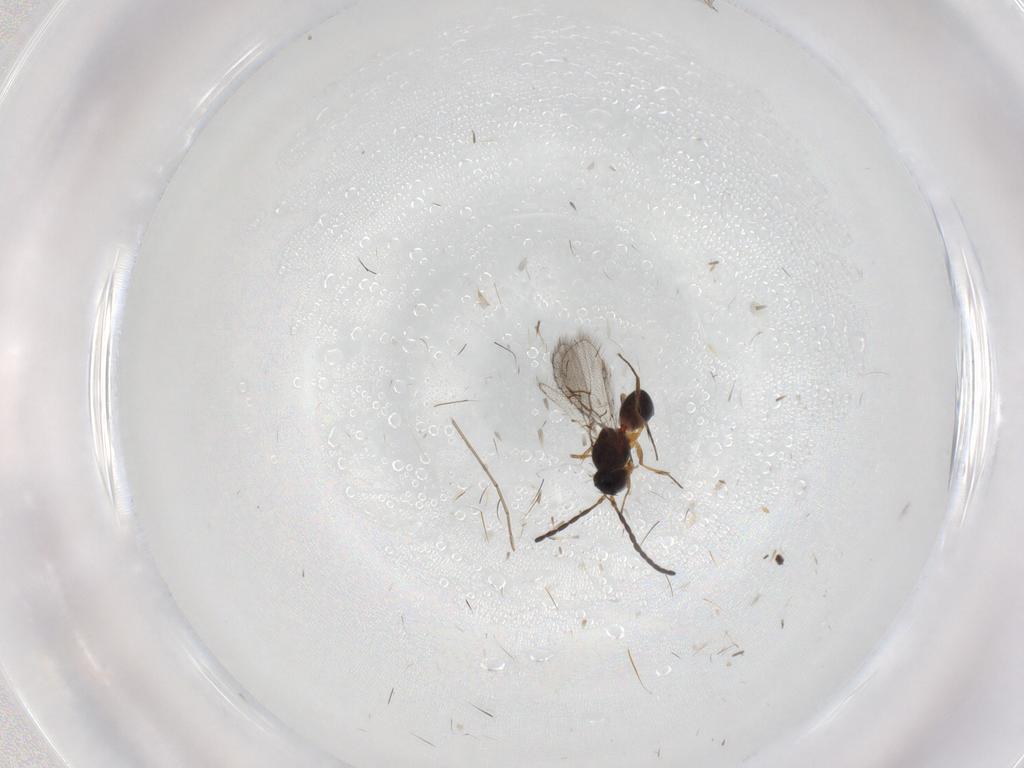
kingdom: Animalia
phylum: Arthropoda
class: Insecta
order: Hymenoptera
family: Figitidae
